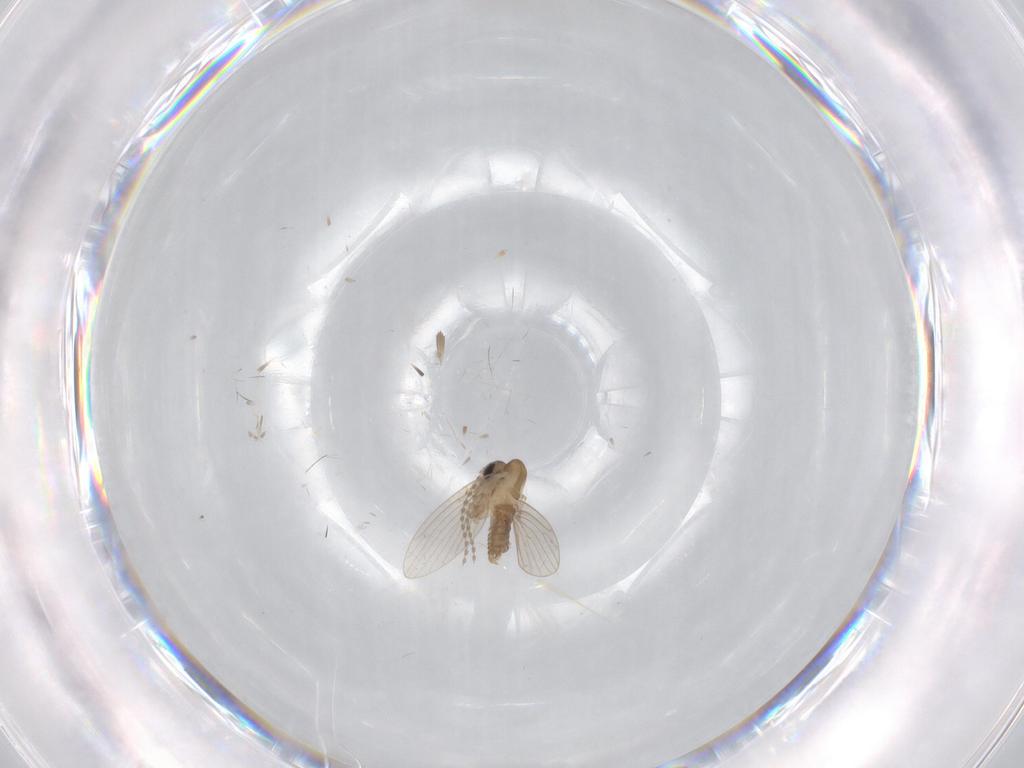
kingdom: Animalia
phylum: Arthropoda
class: Insecta
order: Diptera
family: Psychodidae
